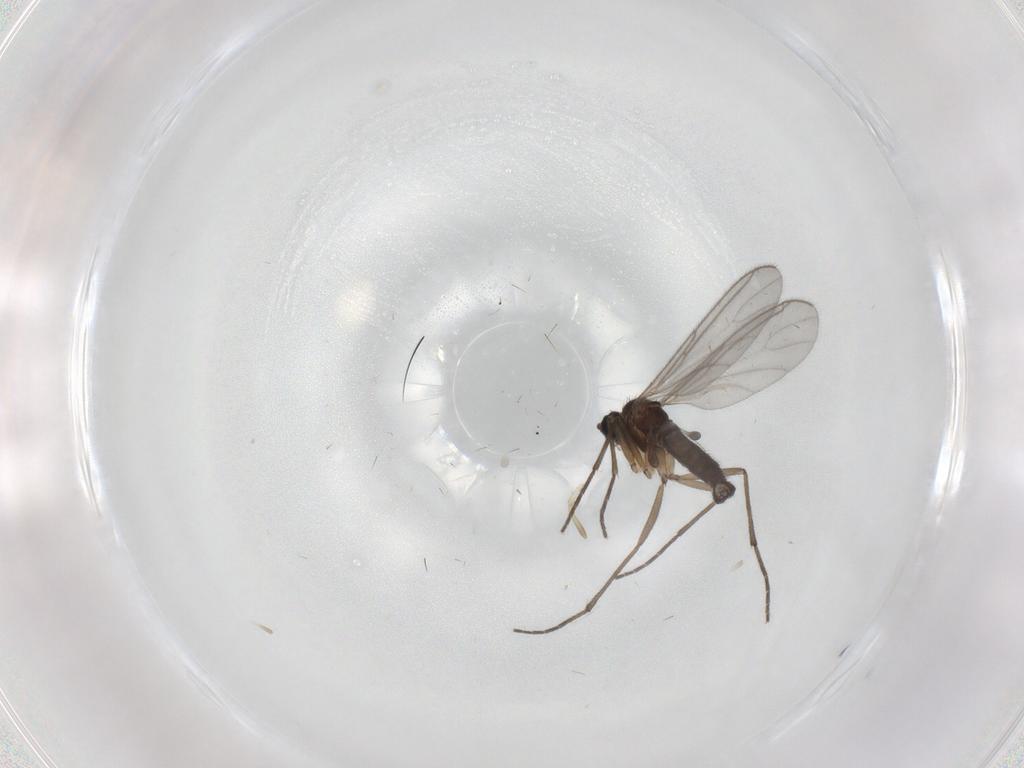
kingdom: Animalia
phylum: Arthropoda
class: Insecta
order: Diptera
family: Sciaridae
